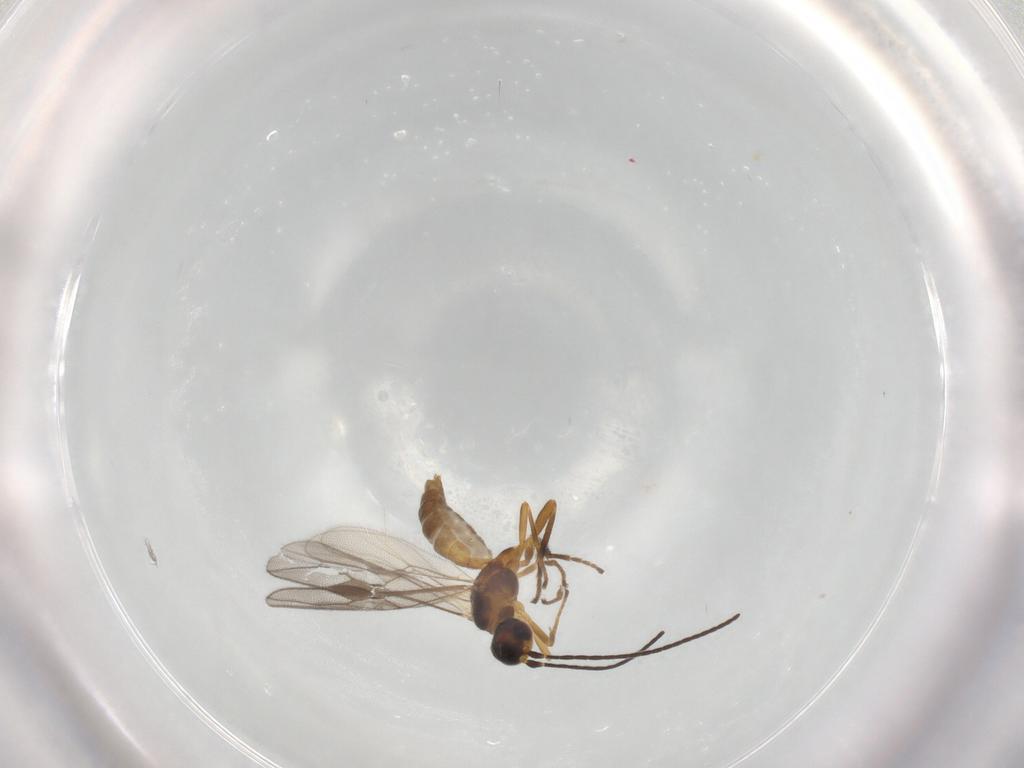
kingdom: Animalia
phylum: Arthropoda
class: Insecta
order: Hymenoptera
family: Braconidae
